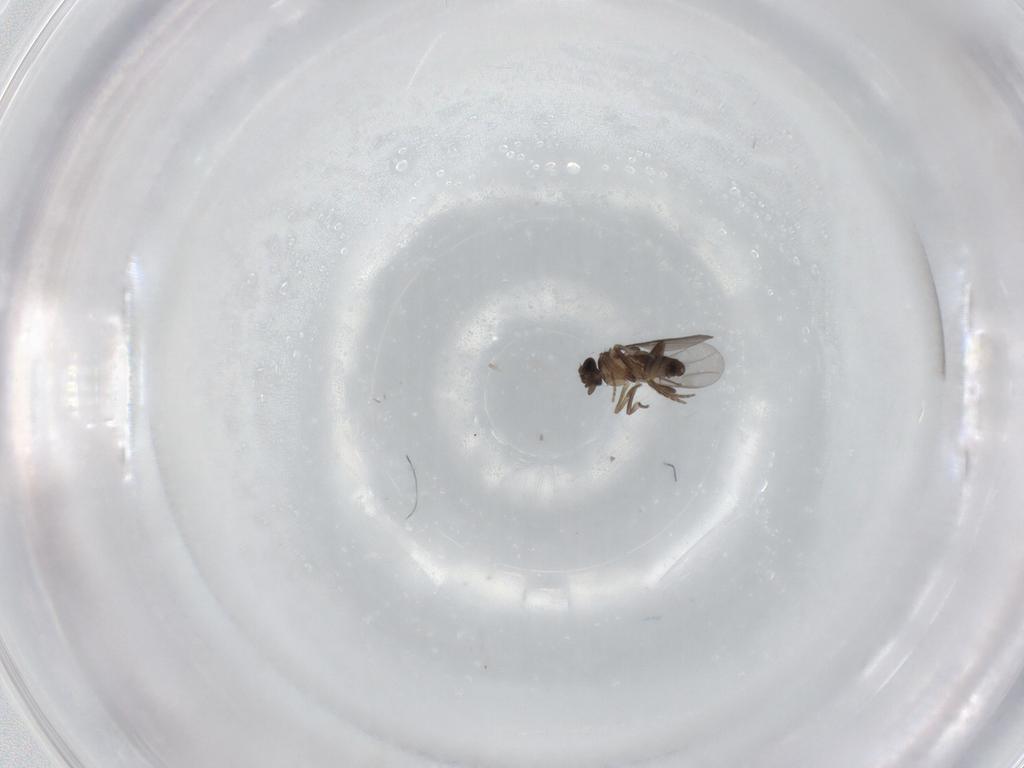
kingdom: Animalia
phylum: Arthropoda
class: Insecta
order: Diptera
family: Phoridae
